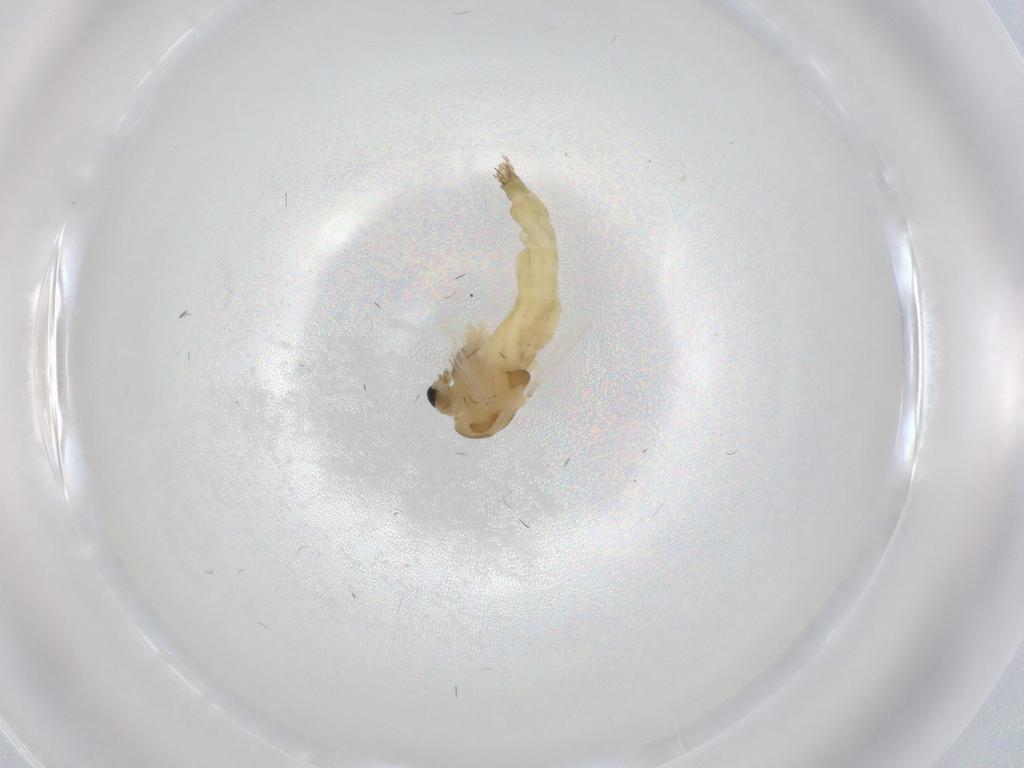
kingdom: Animalia
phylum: Arthropoda
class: Insecta
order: Diptera
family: Chironomidae
